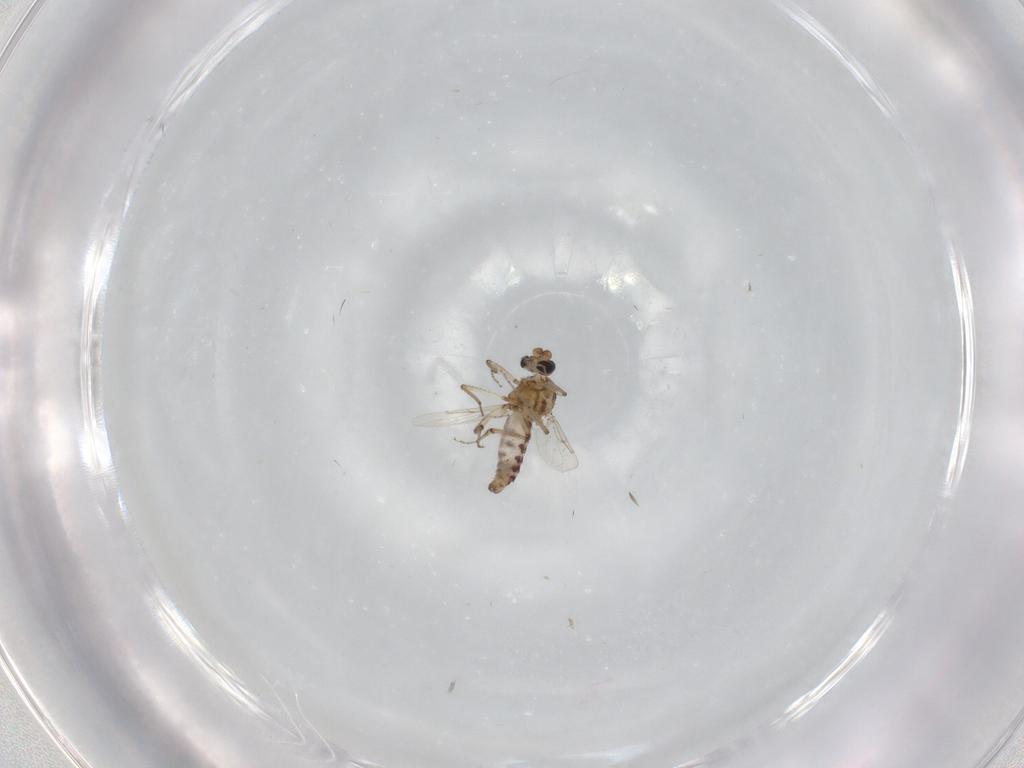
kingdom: Animalia
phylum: Arthropoda
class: Insecta
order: Diptera
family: Ceratopogonidae
